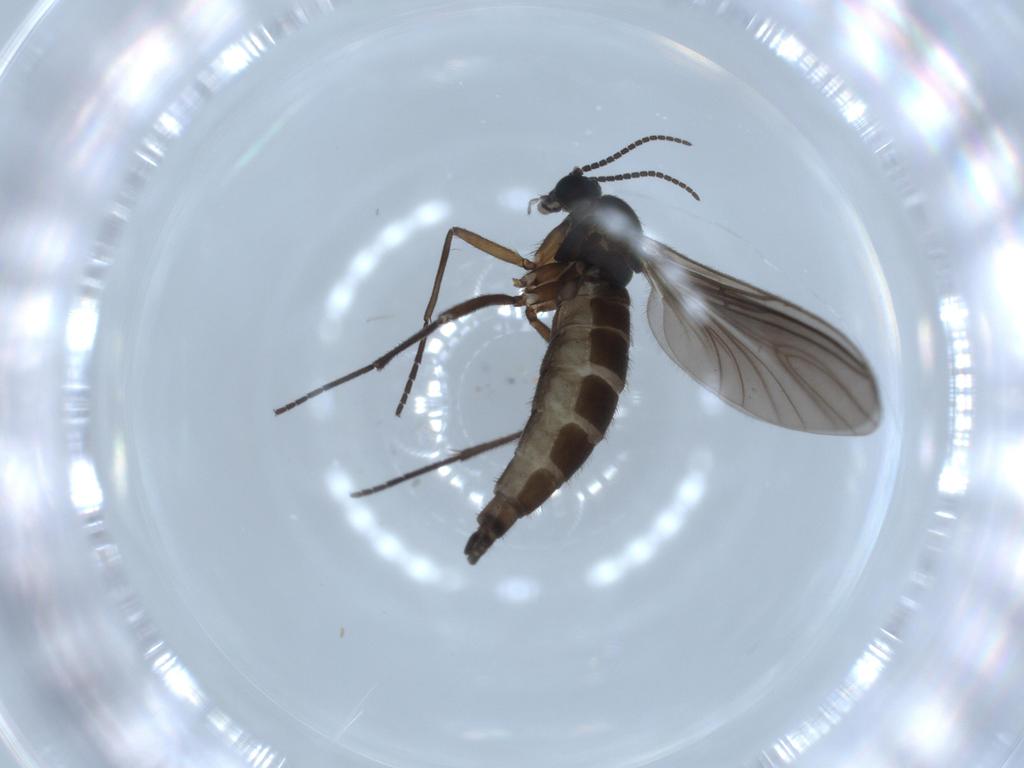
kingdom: Animalia
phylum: Arthropoda
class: Insecta
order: Diptera
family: Sciaridae
